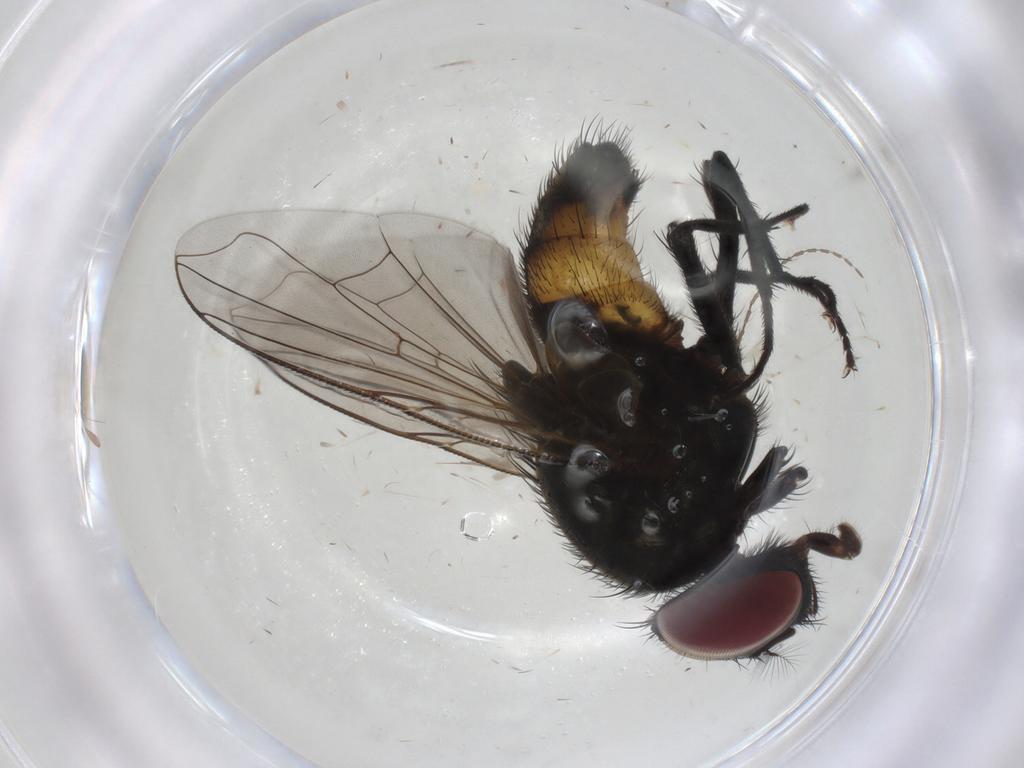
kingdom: Animalia
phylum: Arthropoda
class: Insecta
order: Diptera
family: Muscidae
